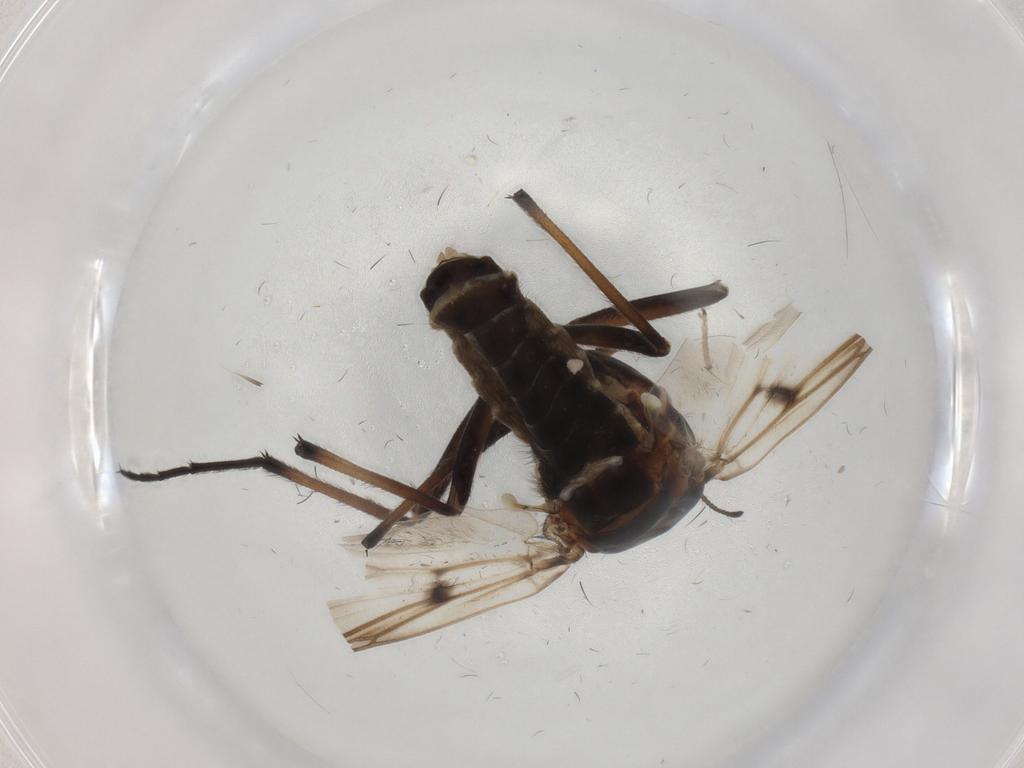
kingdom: Animalia
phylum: Arthropoda
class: Insecta
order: Diptera
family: Chironomidae
